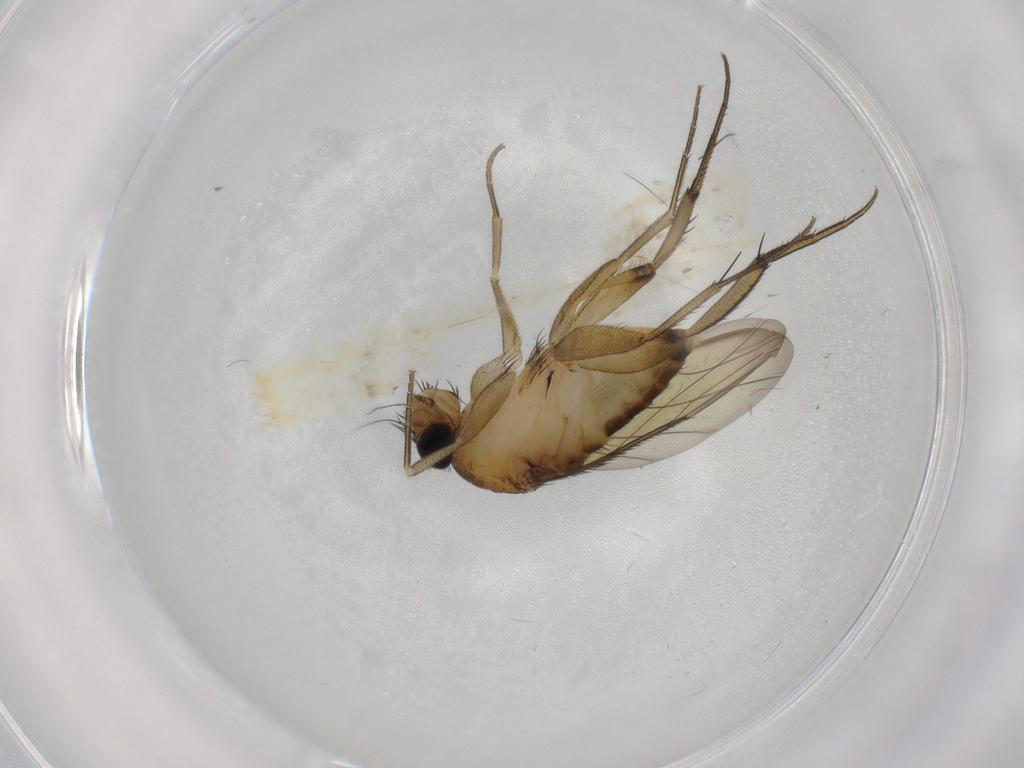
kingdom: Animalia
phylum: Arthropoda
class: Insecta
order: Diptera
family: Phoridae
